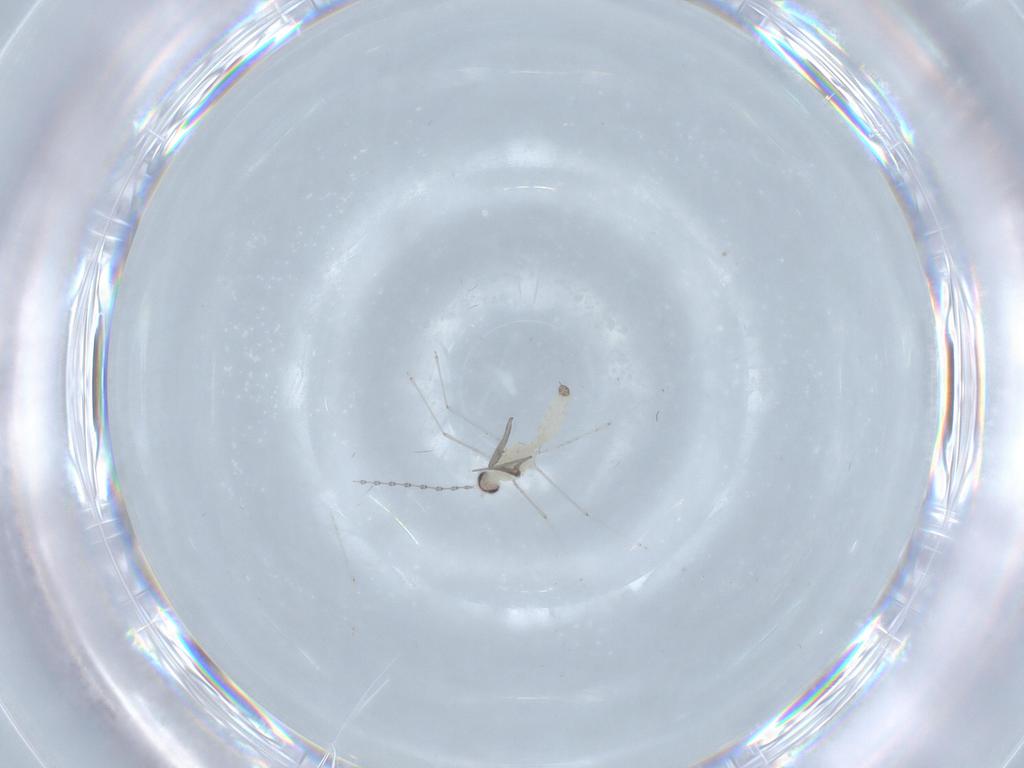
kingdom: Animalia
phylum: Arthropoda
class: Insecta
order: Diptera
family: Cecidomyiidae
